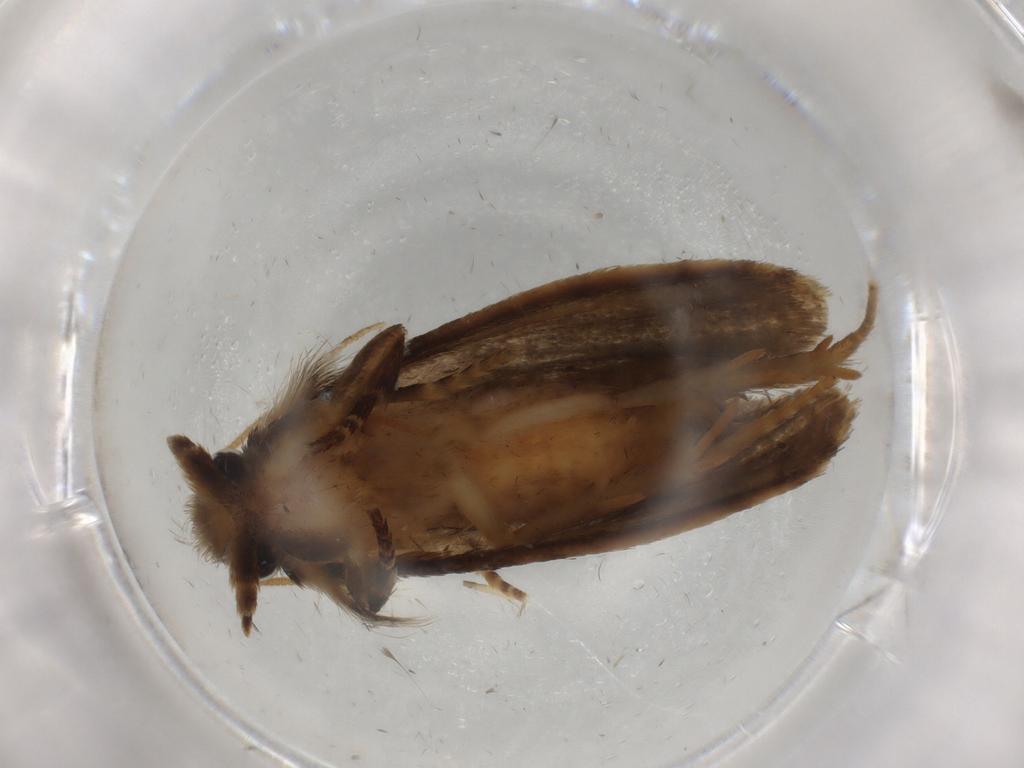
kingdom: Animalia
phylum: Arthropoda
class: Insecta
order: Lepidoptera
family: Tineidae
